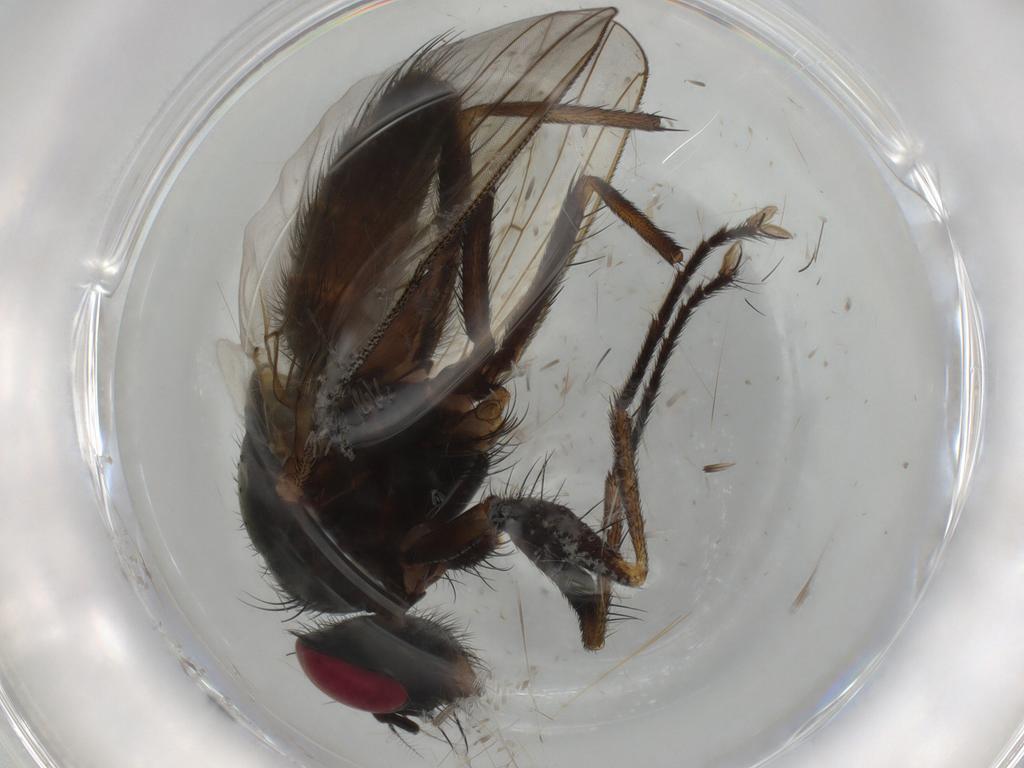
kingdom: Animalia
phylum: Arthropoda
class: Insecta
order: Diptera
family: Muscidae
